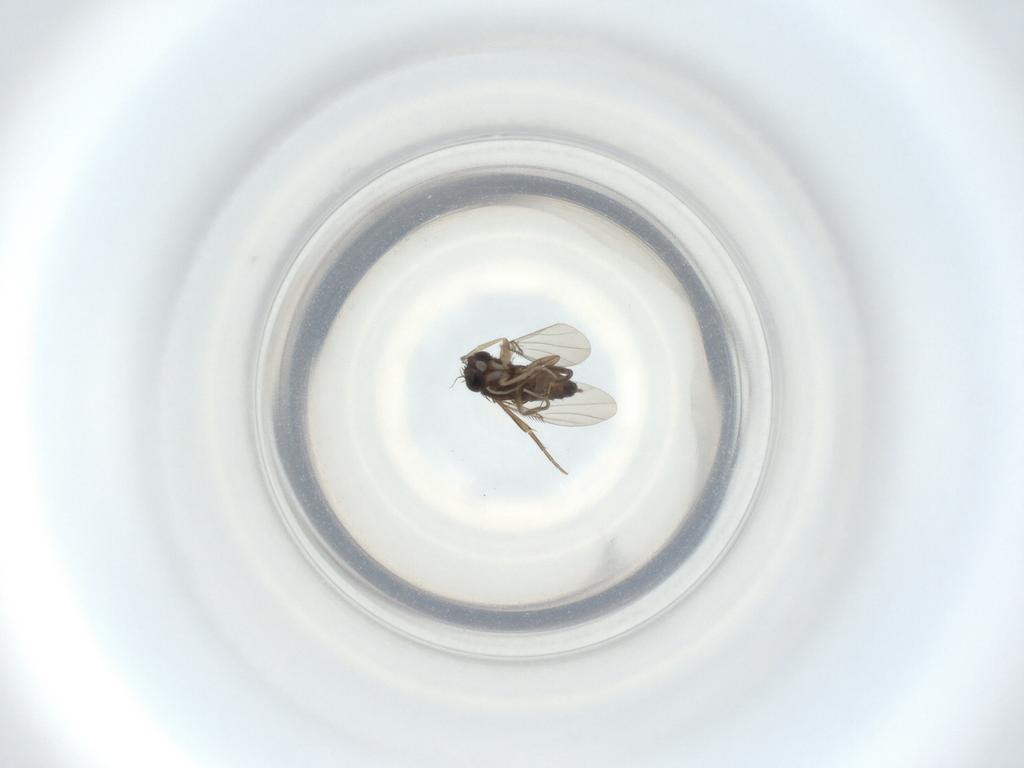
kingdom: Animalia
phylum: Arthropoda
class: Insecta
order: Diptera
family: Phoridae
